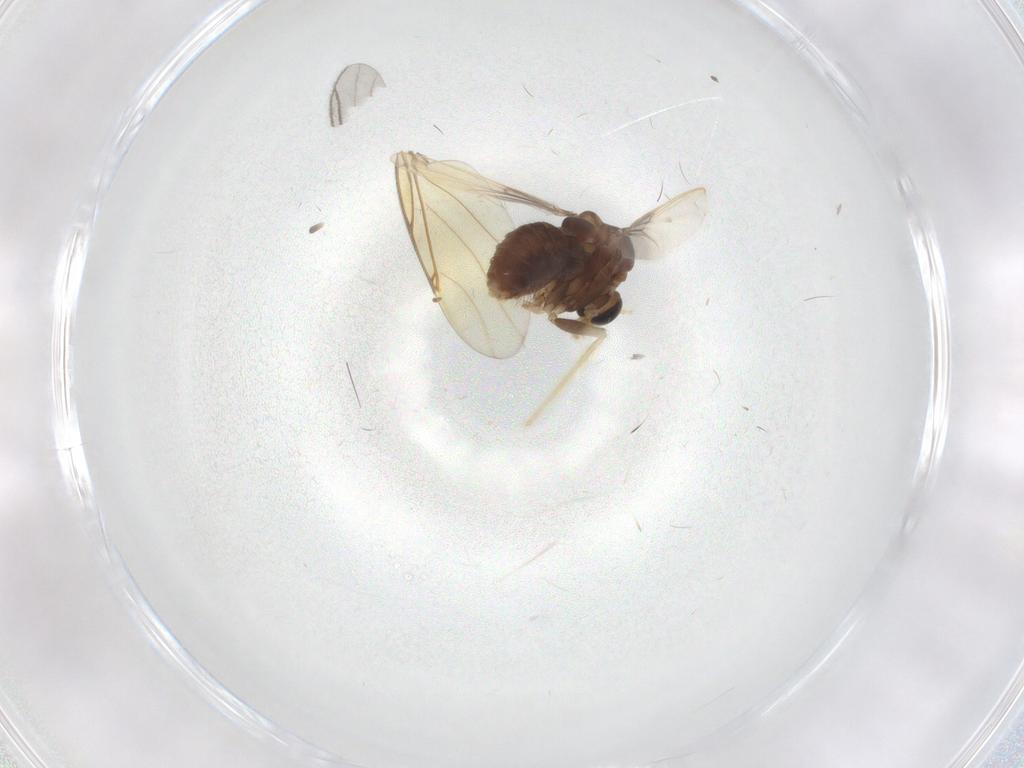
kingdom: Animalia
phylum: Arthropoda
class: Insecta
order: Diptera
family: Chironomidae
